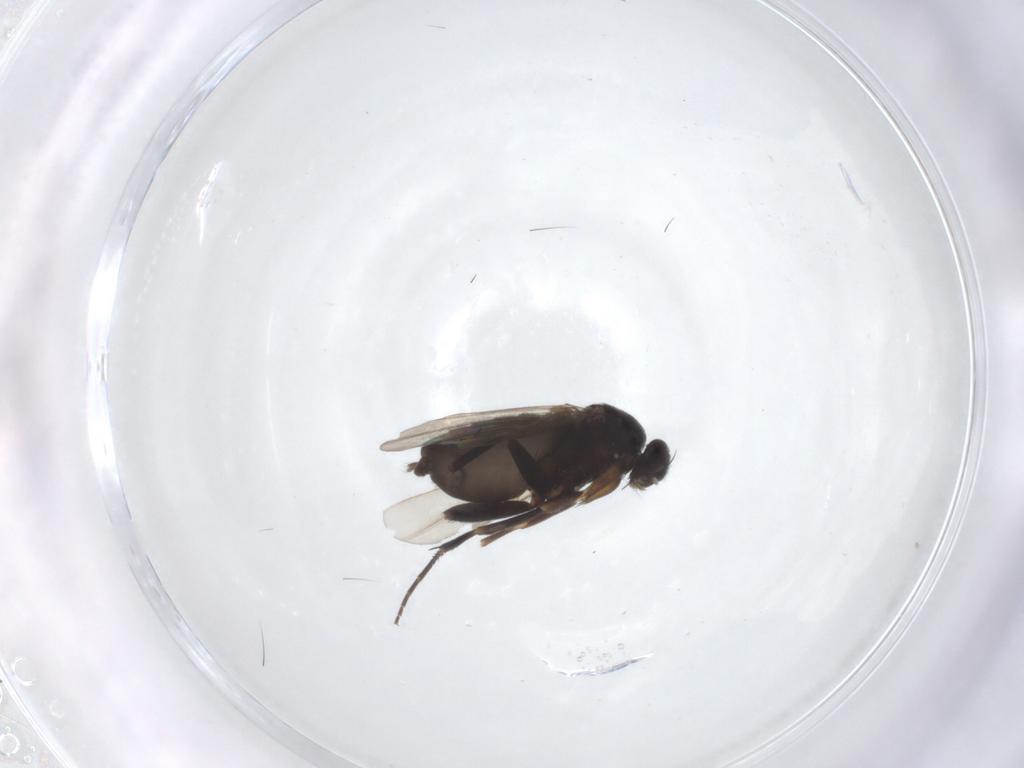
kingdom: Animalia
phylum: Arthropoda
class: Insecta
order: Diptera
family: Phoridae
